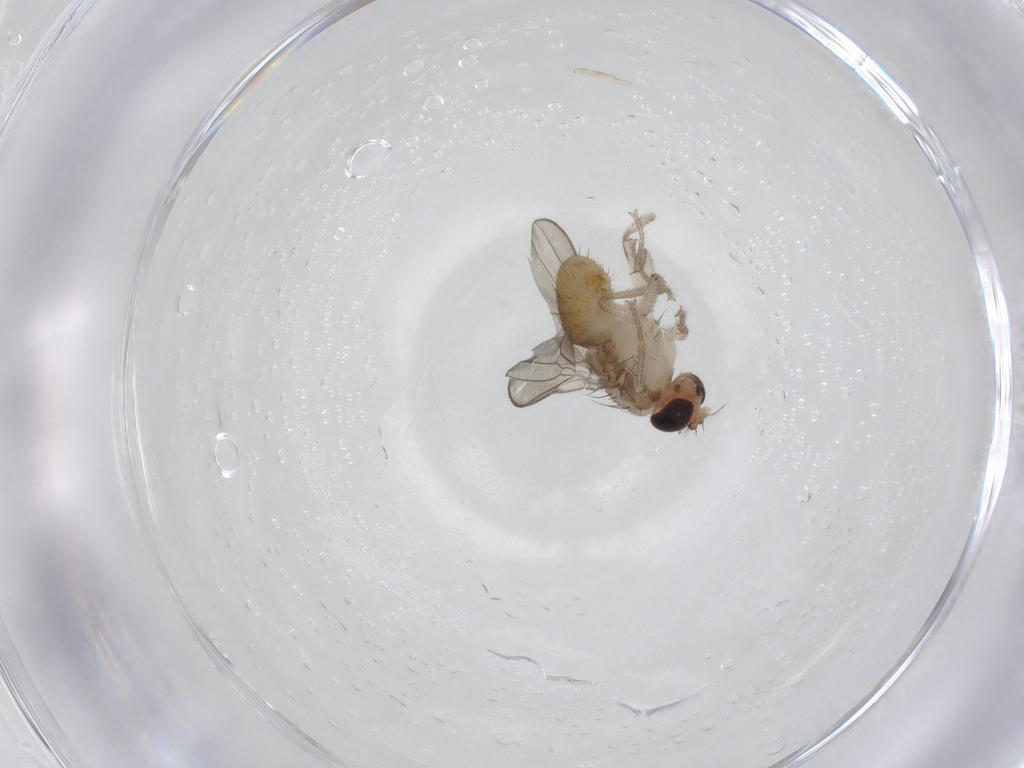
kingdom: Animalia
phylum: Arthropoda
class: Insecta
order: Diptera
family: Drosophilidae
